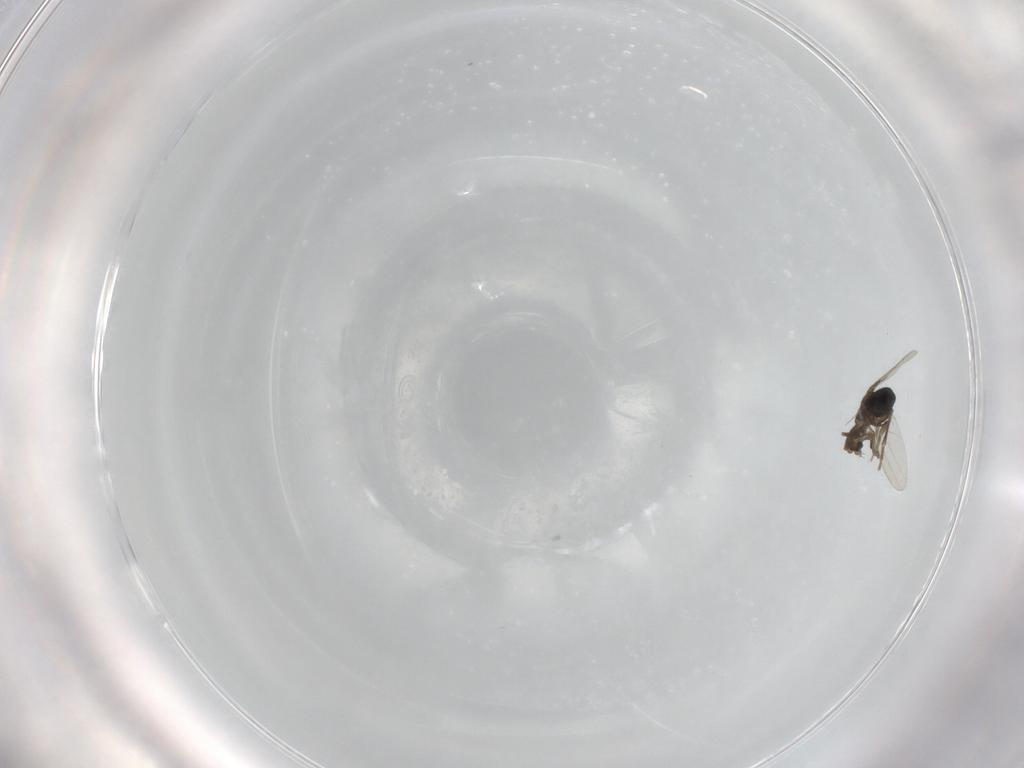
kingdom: Animalia
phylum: Arthropoda
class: Insecta
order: Diptera
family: Phoridae
